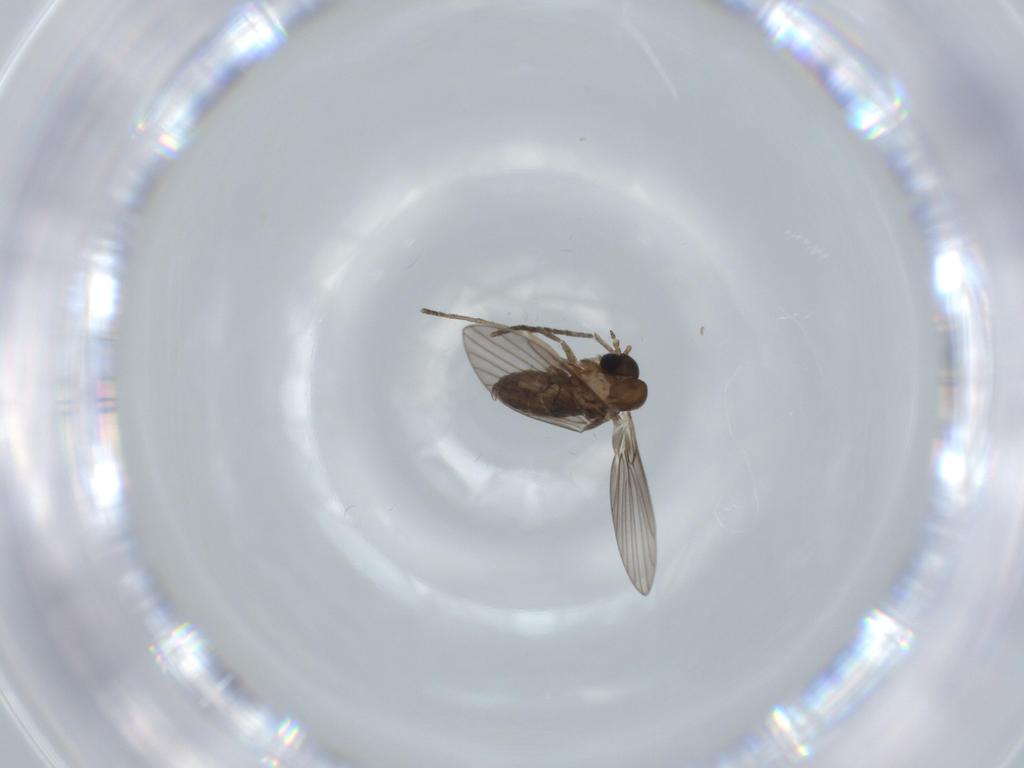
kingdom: Animalia
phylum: Arthropoda
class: Insecta
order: Diptera
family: Psychodidae
